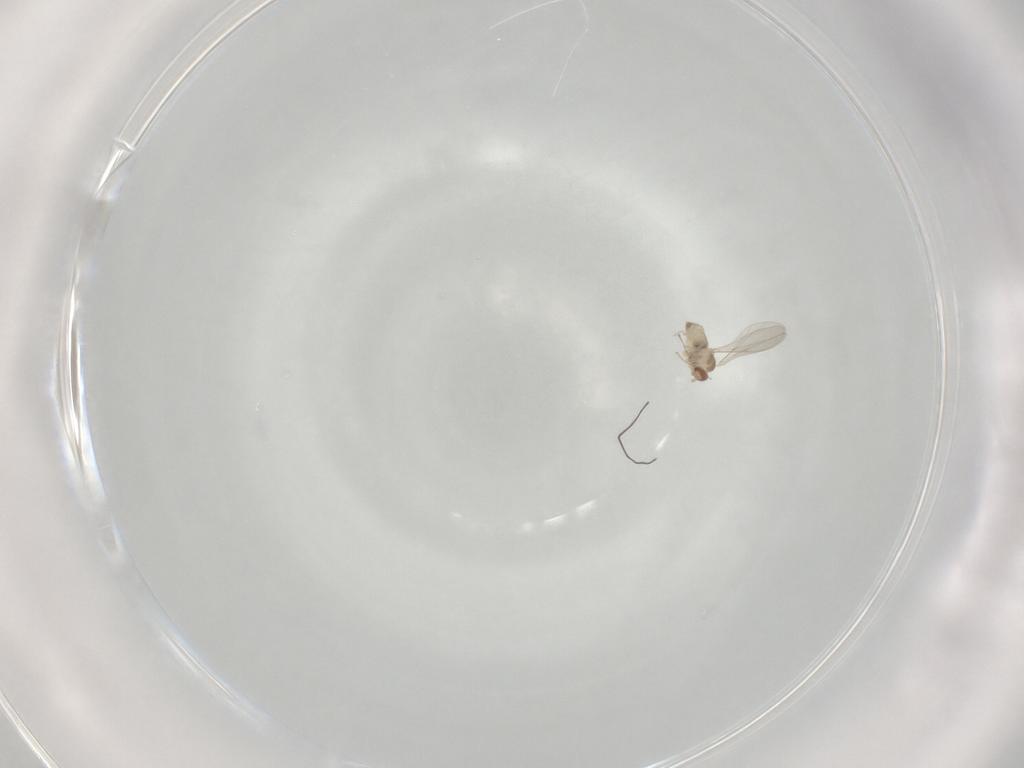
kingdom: Animalia
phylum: Arthropoda
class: Insecta
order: Diptera
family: Cecidomyiidae
